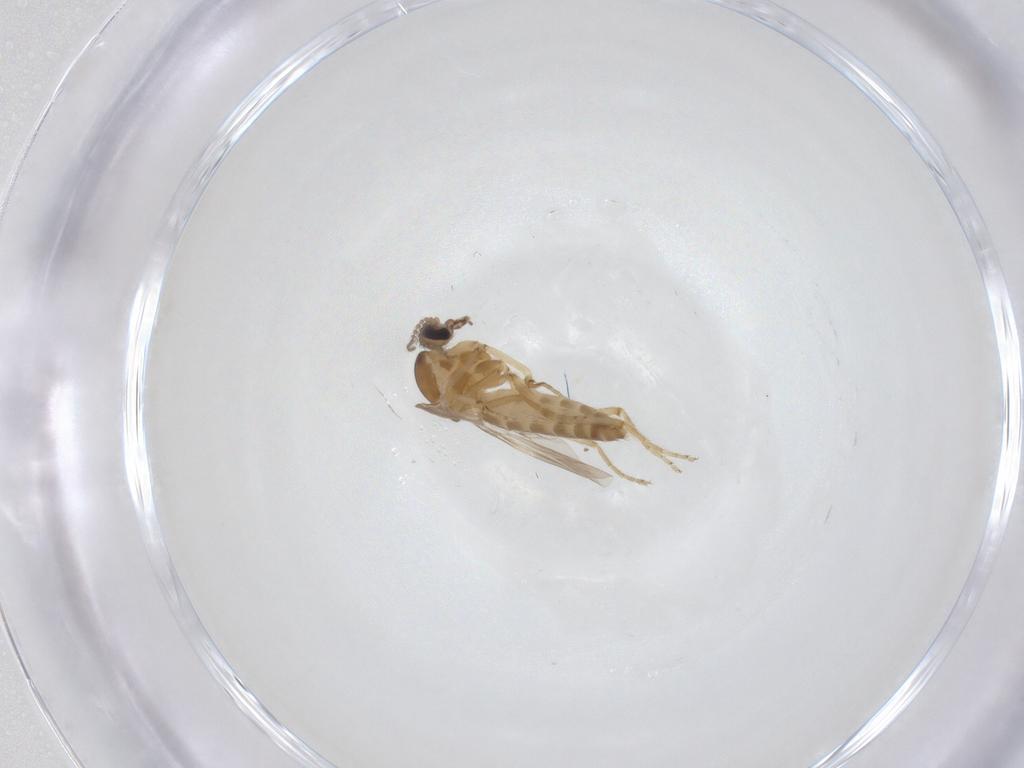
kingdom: Animalia
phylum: Arthropoda
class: Insecta
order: Diptera
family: Ceratopogonidae
